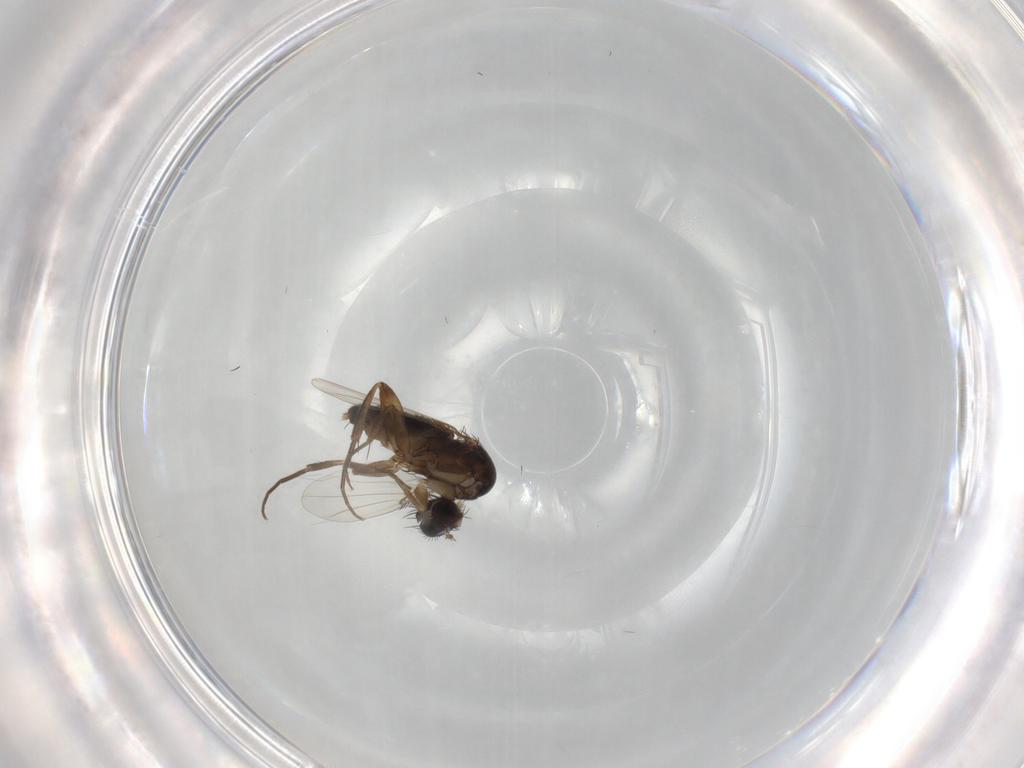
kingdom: Animalia
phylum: Arthropoda
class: Insecta
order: Diptera
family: Phoridae
